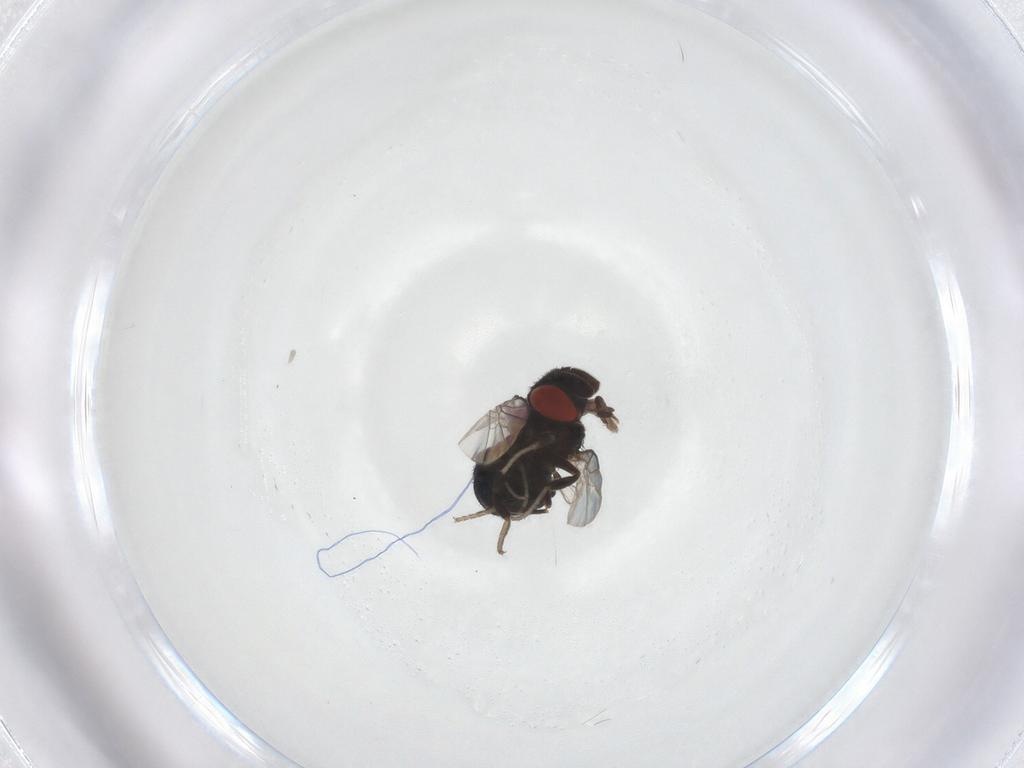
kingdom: Animalia
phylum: Arthropoda
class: Insecta
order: Diptera
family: Cryptochetidae
